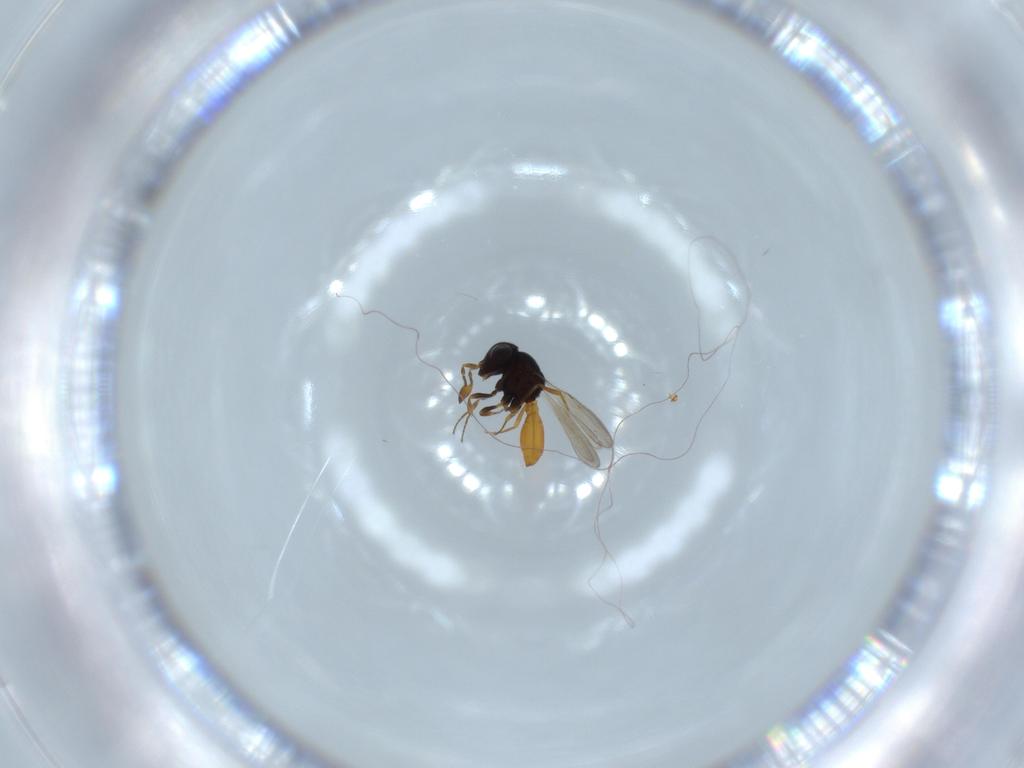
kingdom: Animalia
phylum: Arthropoda
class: Insecta
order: Hymenoptera
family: Scelionidae
